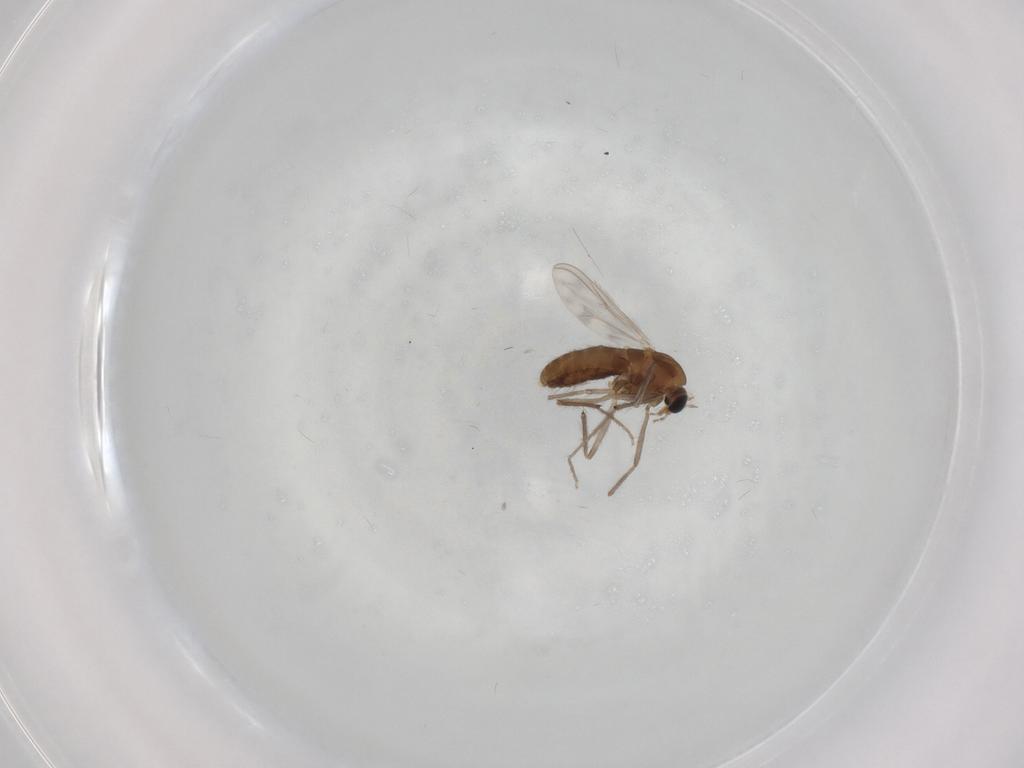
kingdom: Animalia
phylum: Arthropoda
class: Insecta
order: Diptera
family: Chironomidae
